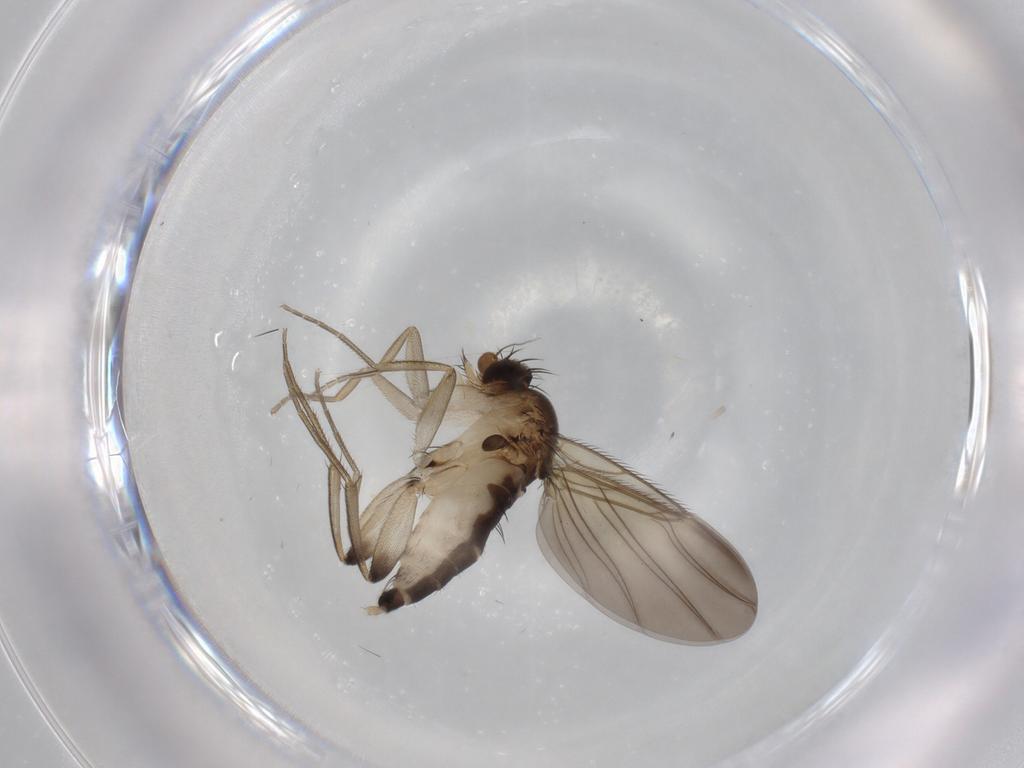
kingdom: Animalia
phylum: Arthropoda
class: Insecta
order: Diptera
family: Phoridae
